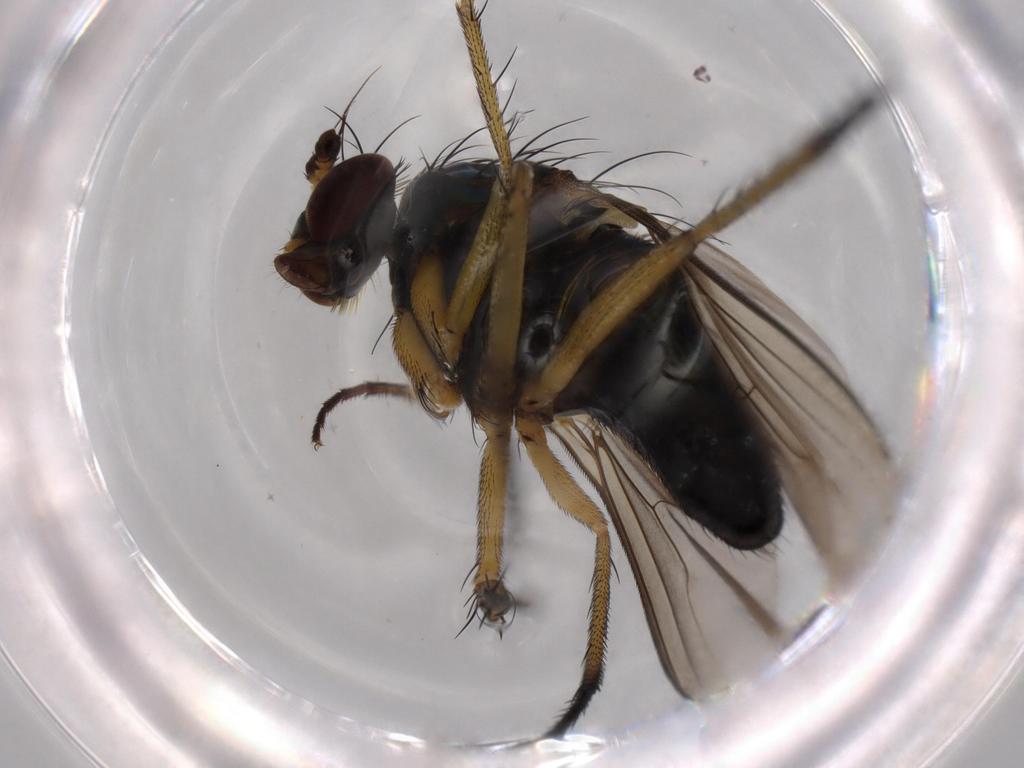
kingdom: Animalia
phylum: Arthropoda
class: Insecta
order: Diptera
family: Dolichopodidae
